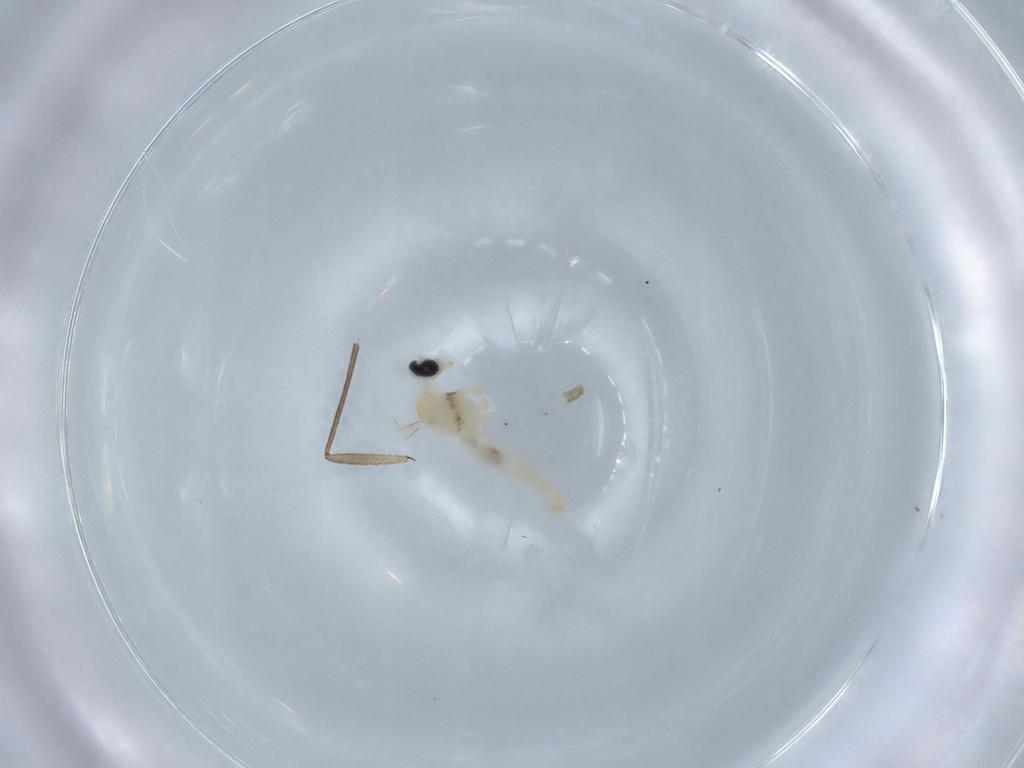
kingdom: Animalia
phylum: Arthropoda
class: Insecta
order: Diptera
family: Cecidomyiidae
